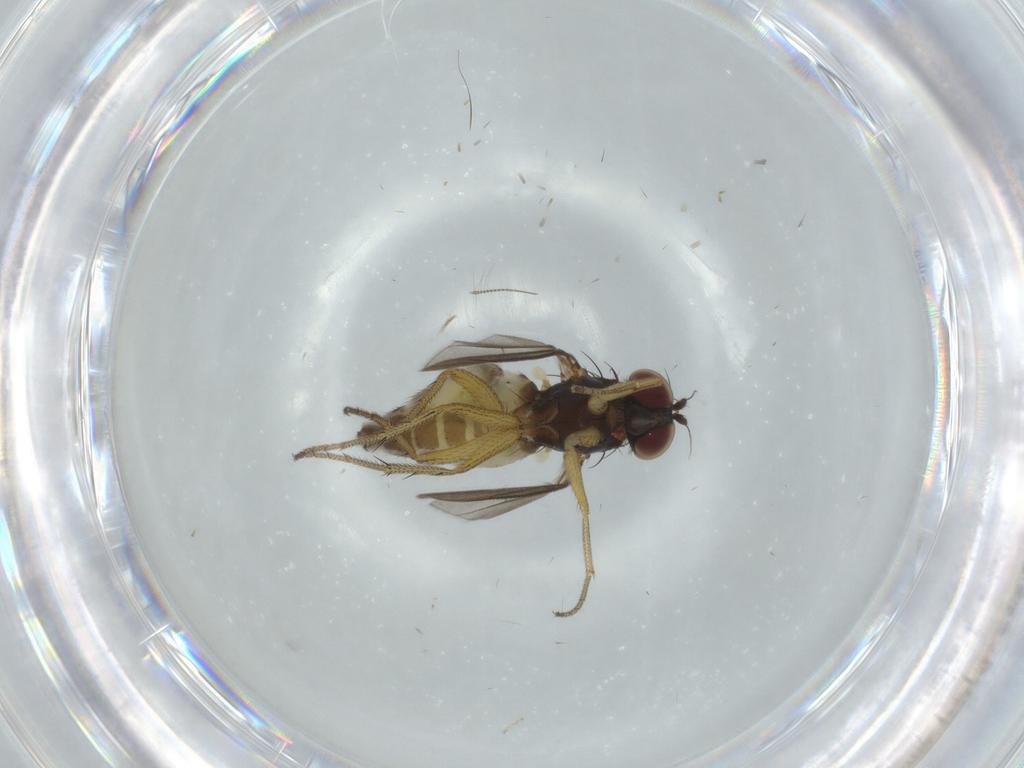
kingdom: Animalia
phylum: Arthropoda
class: Insecta
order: Diptera
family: Dolichopodidae
